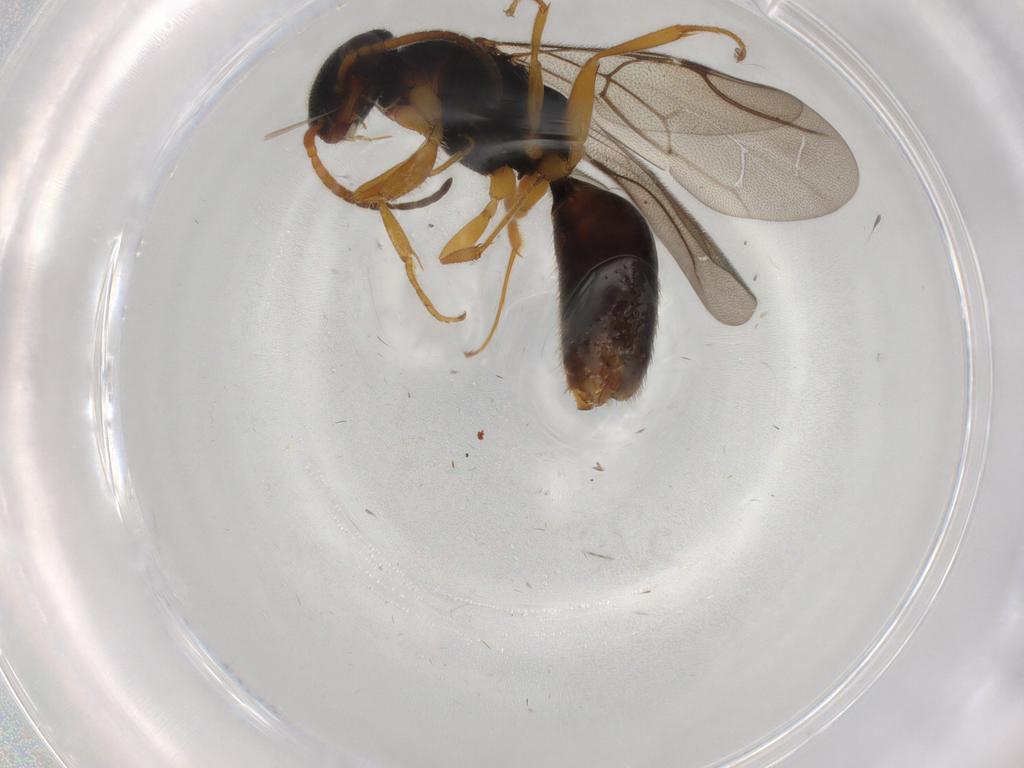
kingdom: Animalia
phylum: Arthropoda
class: Insecta
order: Hymenoptera
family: Bethylidae
